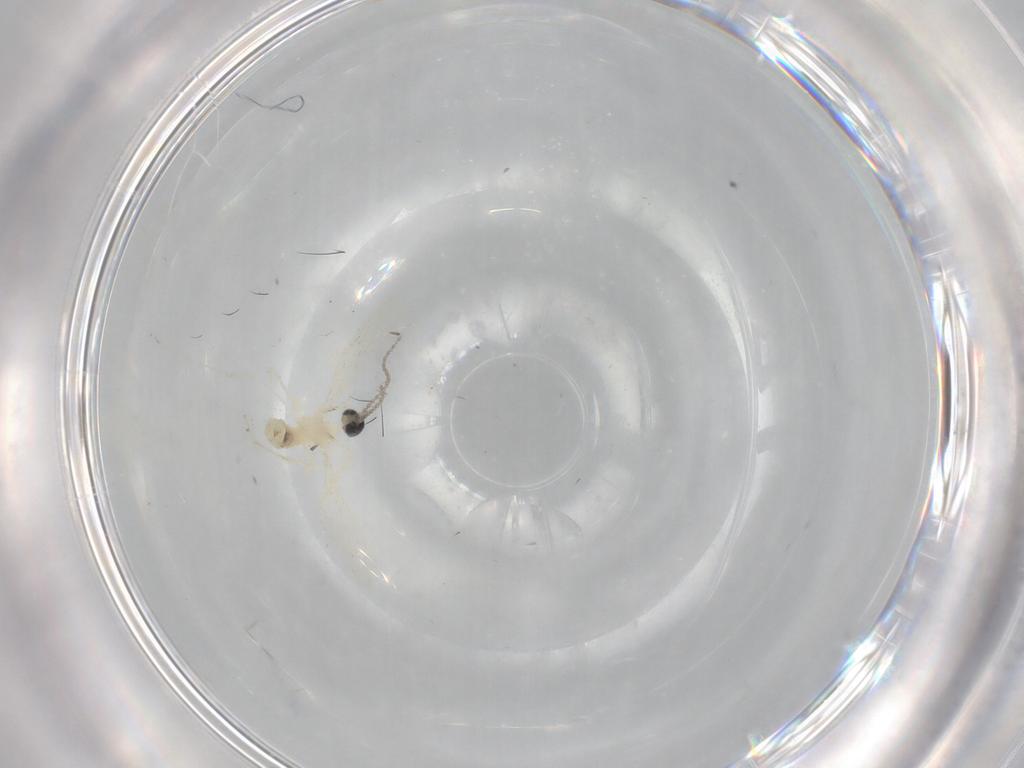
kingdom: Animalia
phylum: Arthropoda
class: Insecta
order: Diptera
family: Cecidomyiidae
